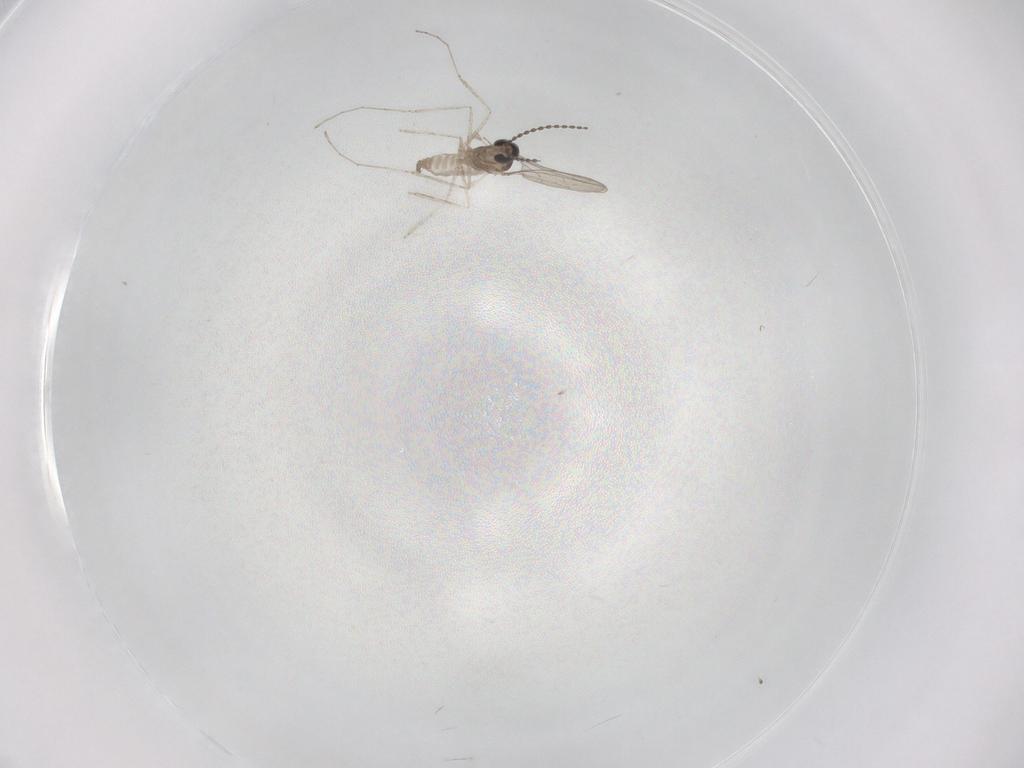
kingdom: Animalia
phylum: Arthropoda
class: Insecta
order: Diptera
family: Cecidomyiidae
